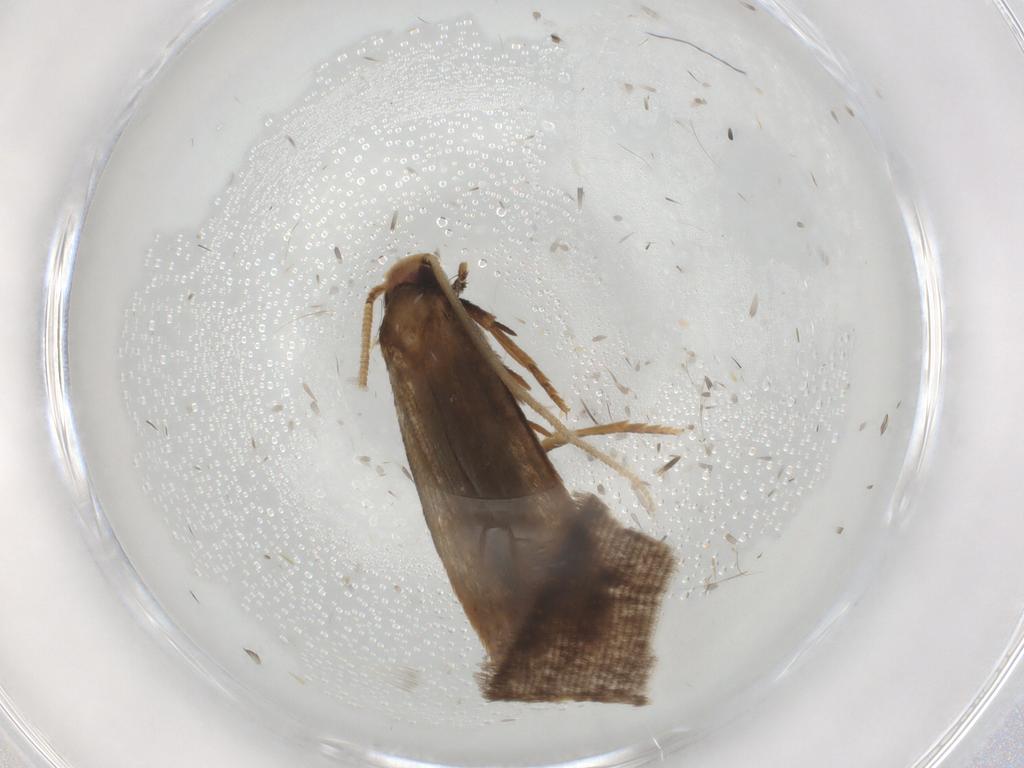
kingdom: Animalia
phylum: Arthropoda
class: Insecta
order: Lepidoptera
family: Coleophoridae
